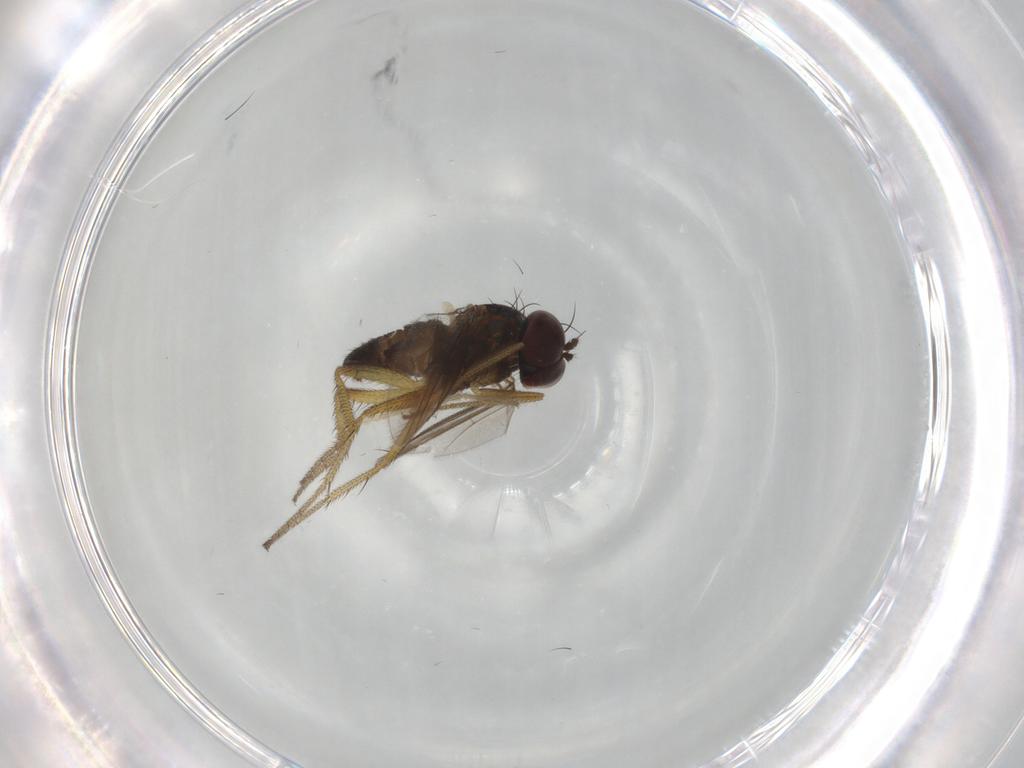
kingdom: Animalia
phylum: Arthropoda
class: Insecta
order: Diptera
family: Chironomidae
